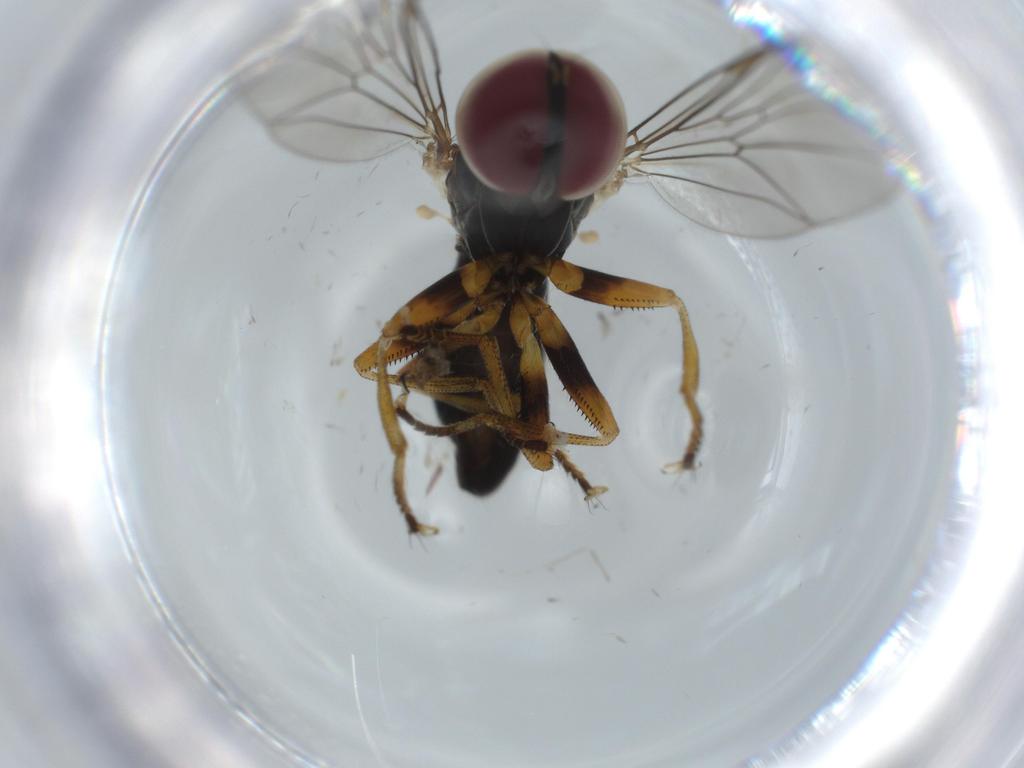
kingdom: Animalia
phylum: Arthropoda
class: Insecta
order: Diptera
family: Pipunculidae
